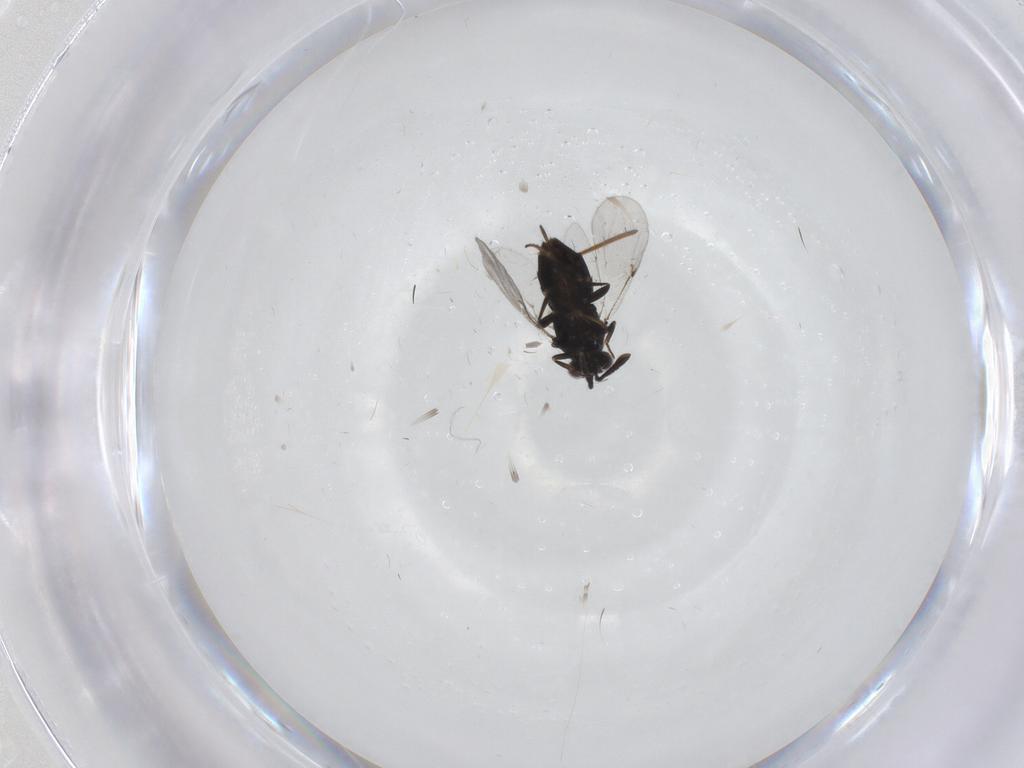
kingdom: Animalia
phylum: Arthropoda
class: Insecta
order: Hymenoptera
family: Encyrtidae
